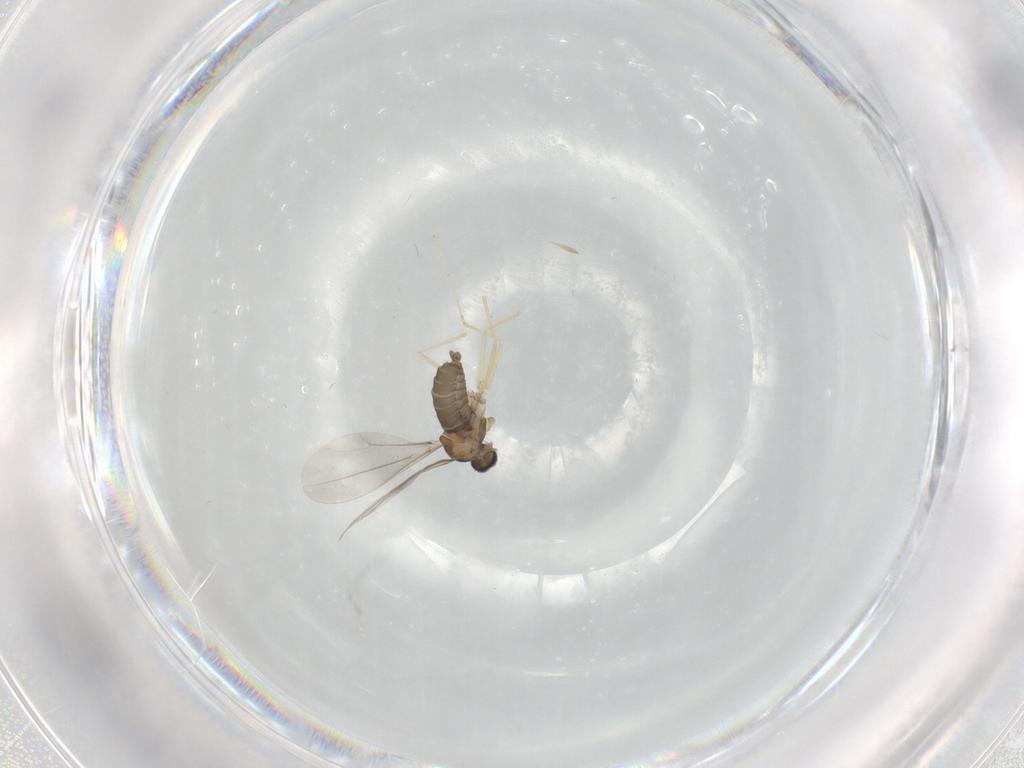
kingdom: Animalia
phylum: Arthropoda
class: Insecta
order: Diptera
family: Cecidomyiidae
